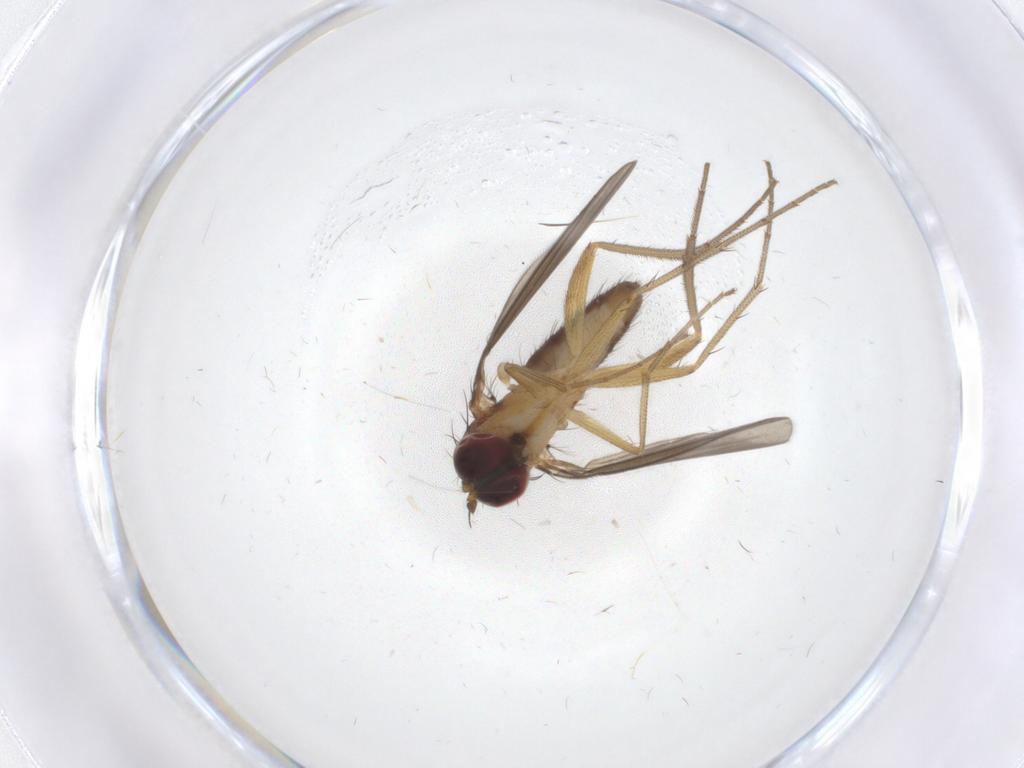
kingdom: Animalia
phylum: Arthropoda
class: Insecta
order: Diptera
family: Dolichopodidae
